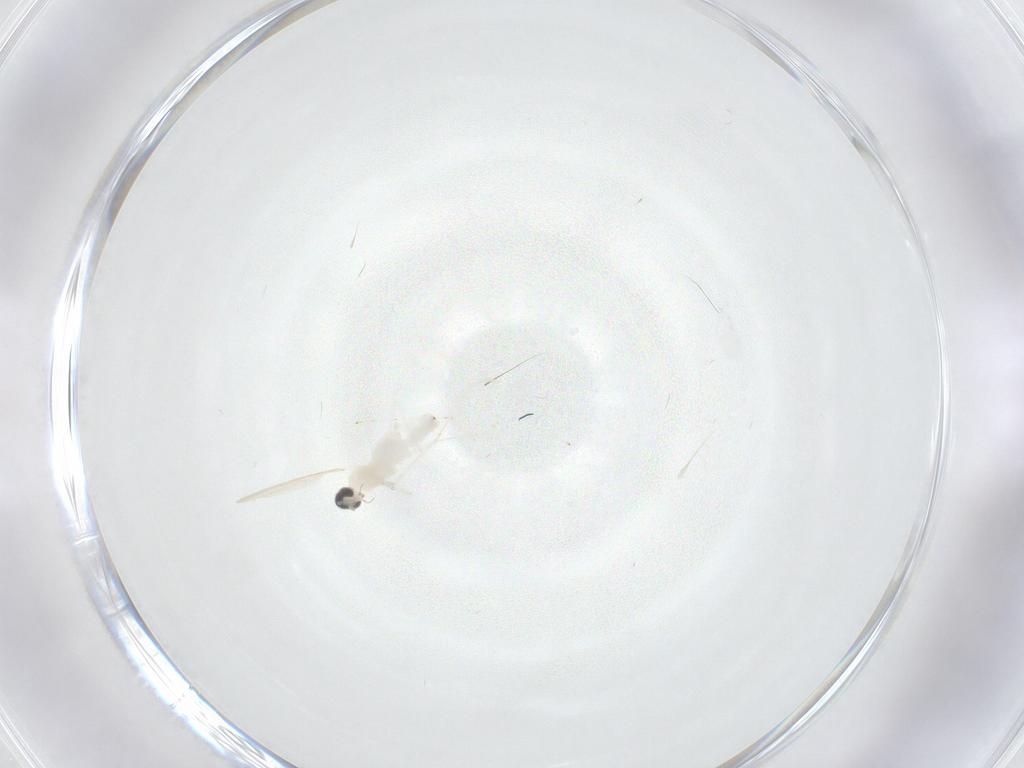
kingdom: Animalia
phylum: Arthropoda
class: Insecta
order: Diptera
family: Cecidomyiidae
